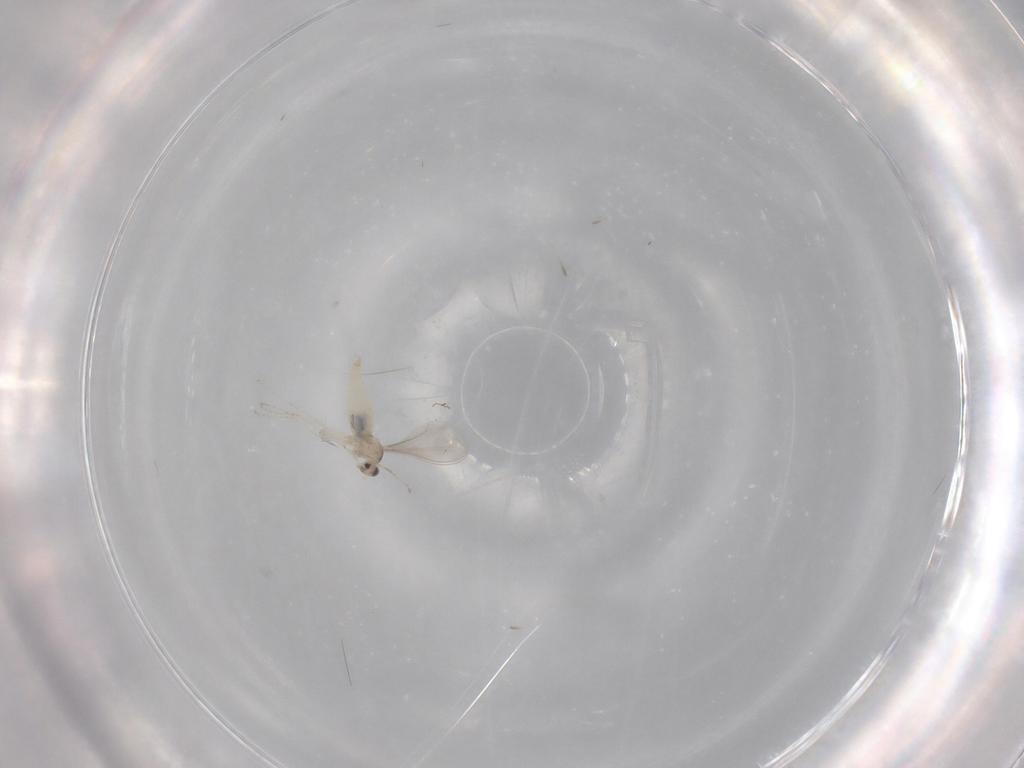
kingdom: Animalia
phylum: Arthropoda
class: Insecta
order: Diptera
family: Cecidomyiidae
